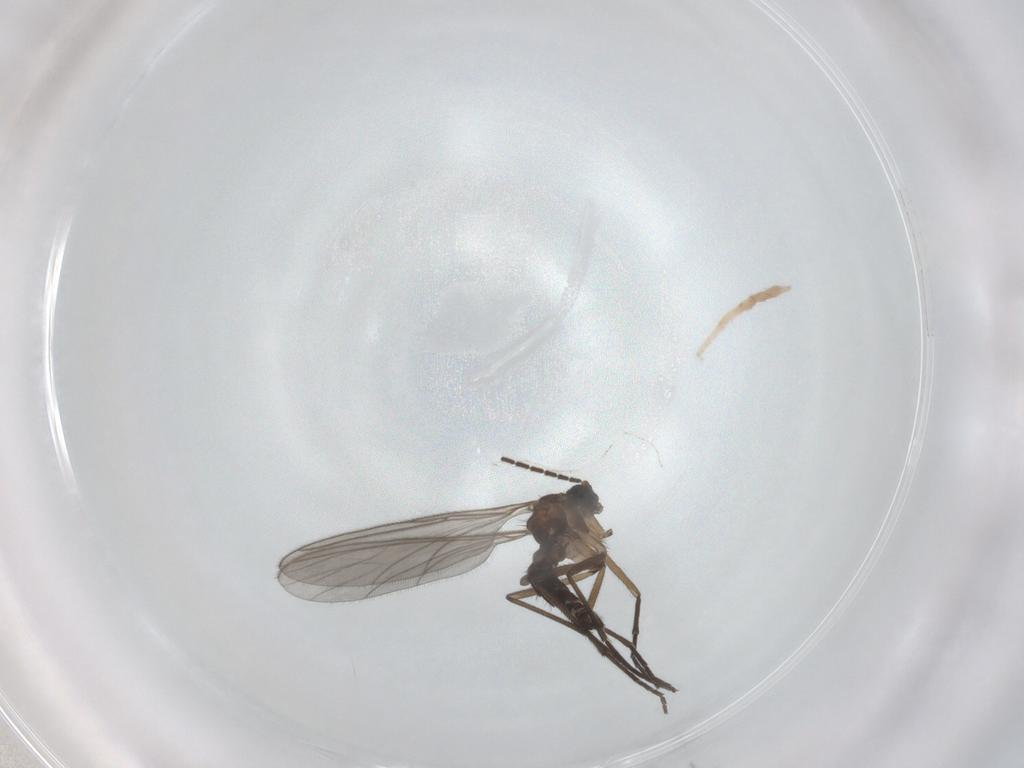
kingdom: Animalia
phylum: Arthropoda
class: Insecta
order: Diptera
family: Sciaridae
